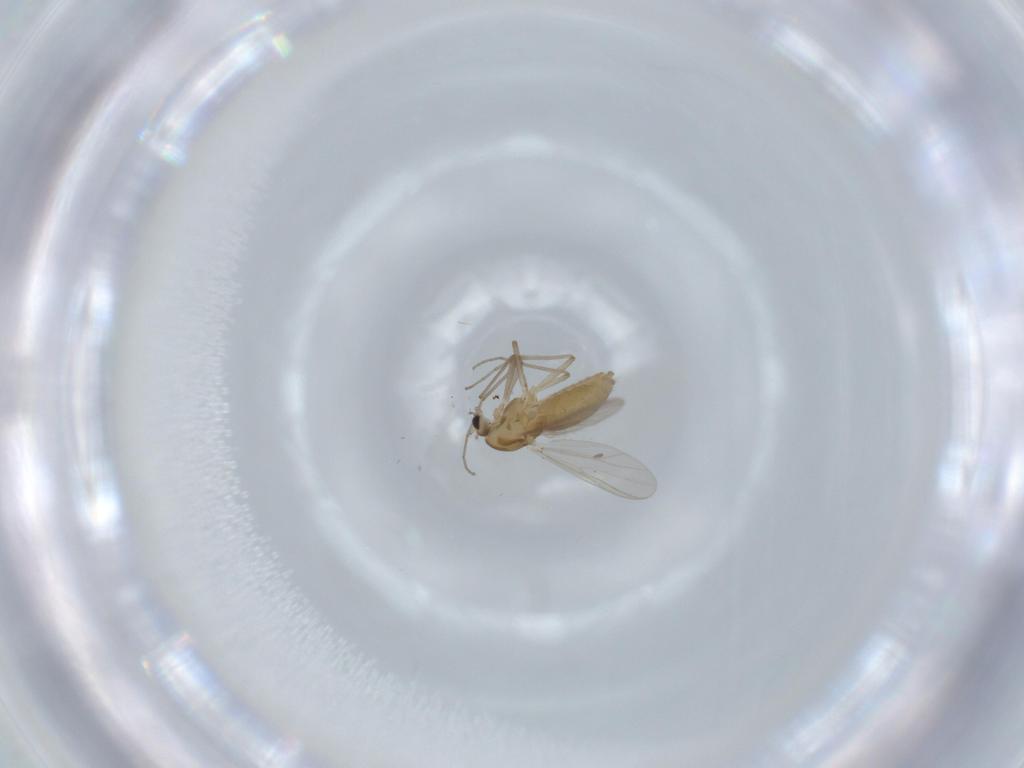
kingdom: Animalia
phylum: Arthropoda
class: Insecta
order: Diptera
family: Chironomidae
